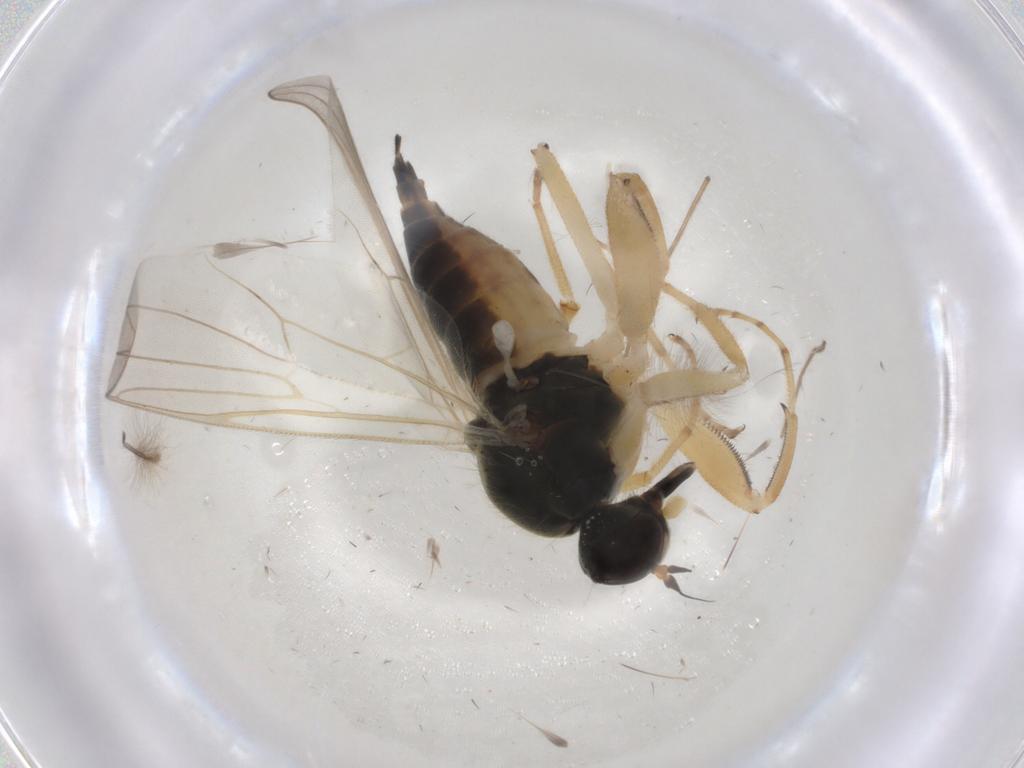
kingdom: Animalia
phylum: Arthropoda
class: Insecta
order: Diptera
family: Hybotidae
